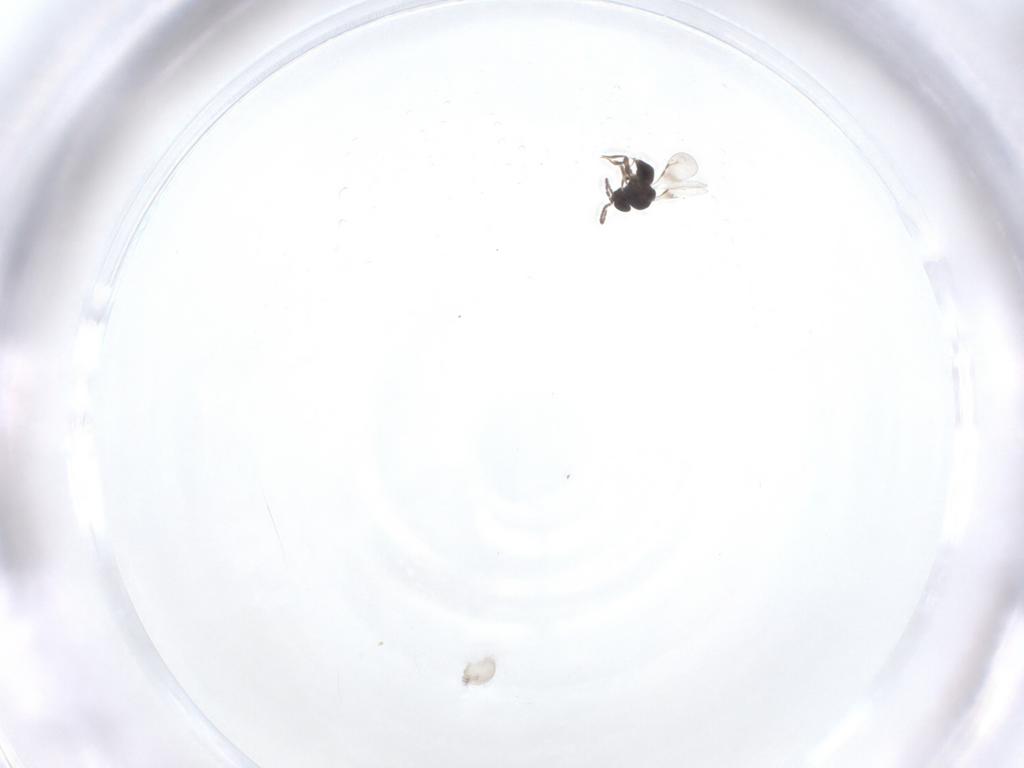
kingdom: Animalia
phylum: Arthropoda
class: Insecta
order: Hymenoptera
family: Ceraphronidae
